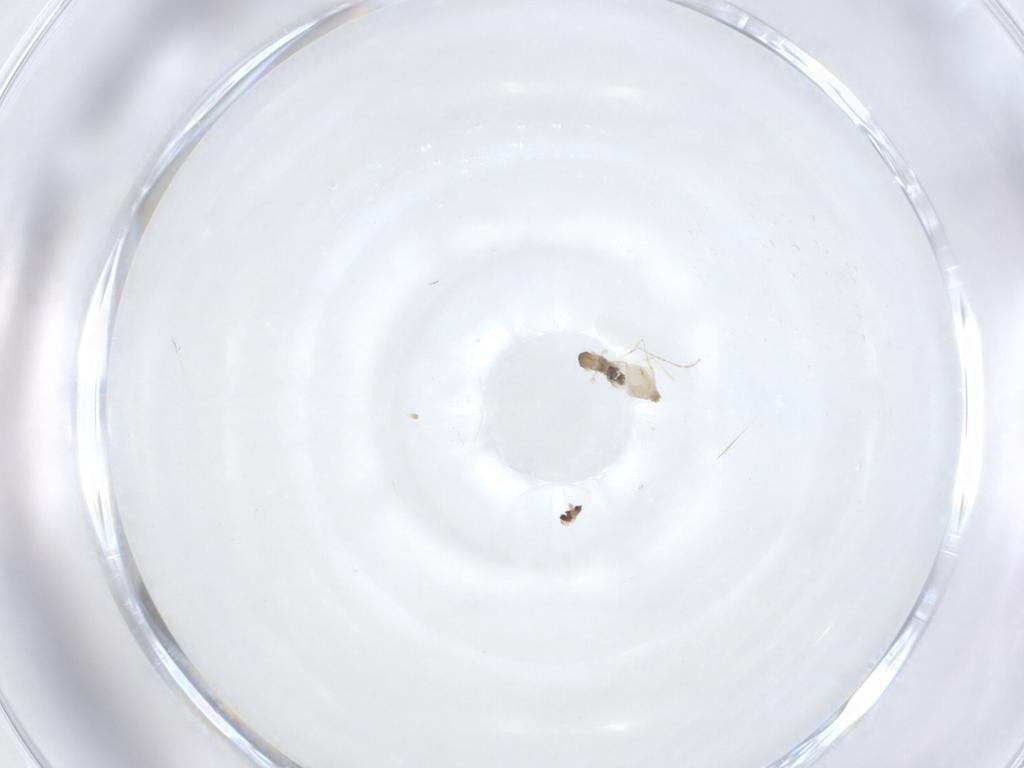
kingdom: Animalia
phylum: Arthropoda
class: Insecta
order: Diptera
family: Cecidomyiidae
